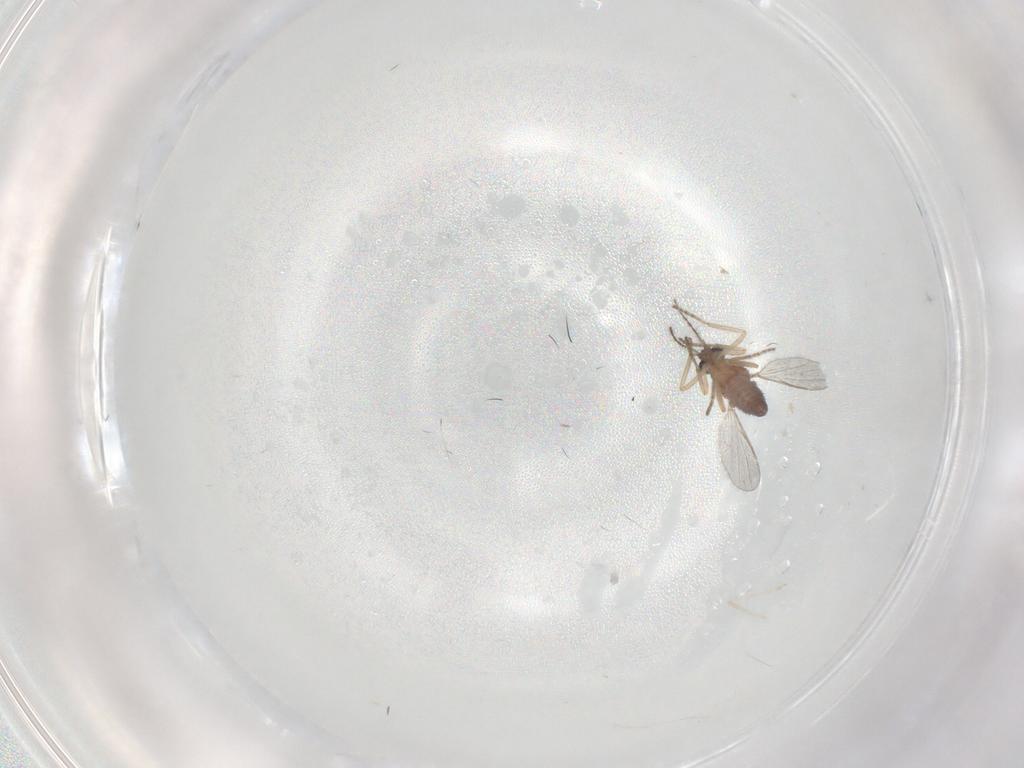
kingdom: Animalia
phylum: Arthropoda
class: Insecta
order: Diptera
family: Ceratopogonidae
